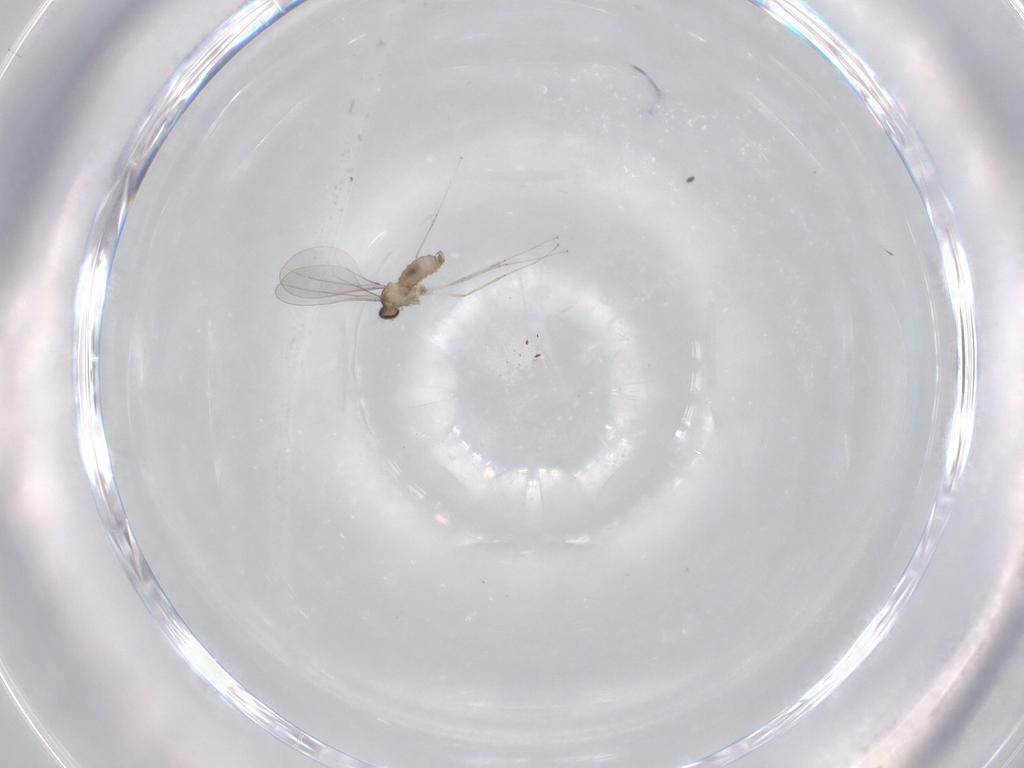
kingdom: Animalia
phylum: Arthropoda
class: Insecta
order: Diptera
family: Cecidomyiidae
